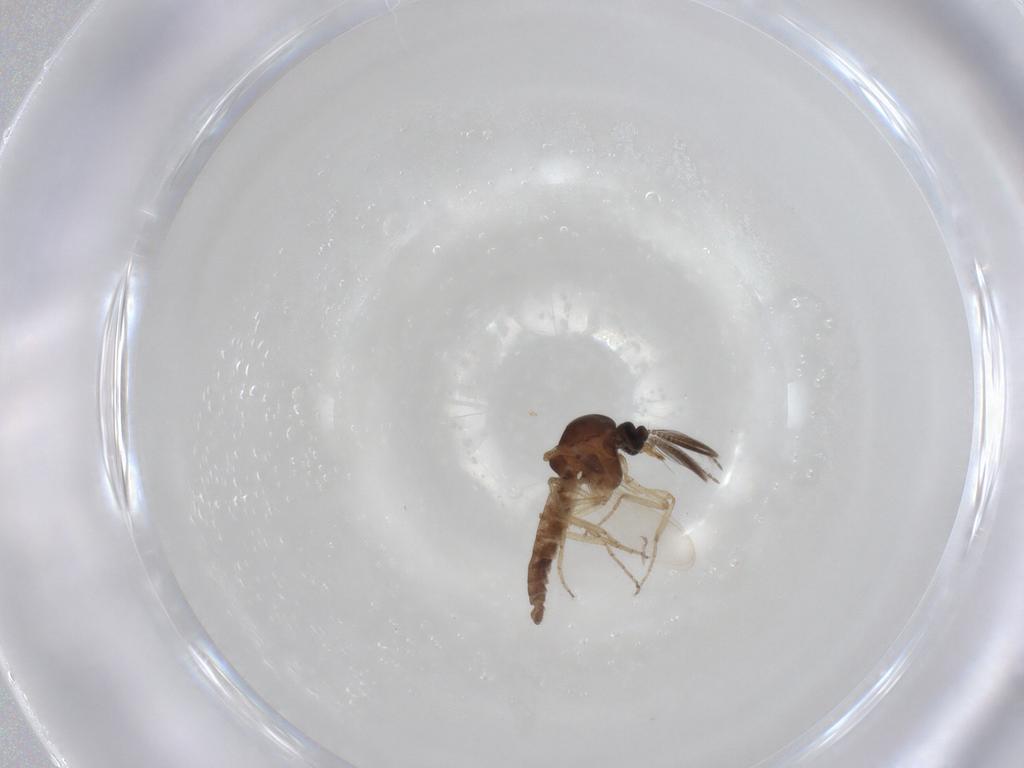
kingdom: Animalia
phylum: Arthropoda
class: Insecta
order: Diptera
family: Ceratopogonidae
